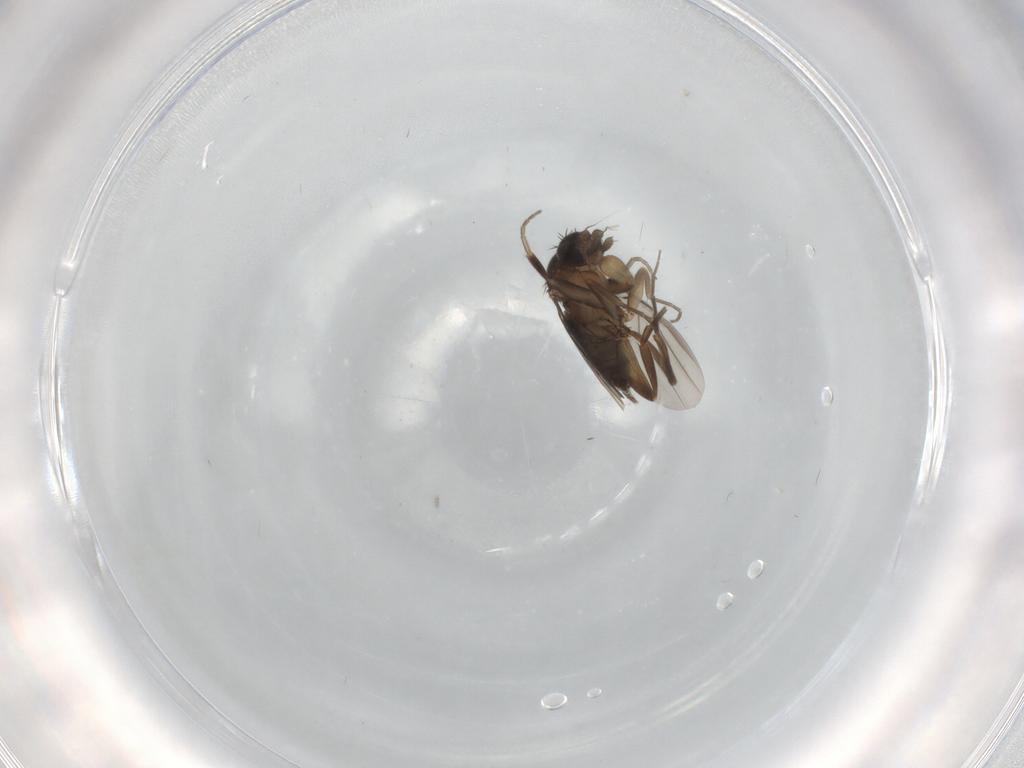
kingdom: Animalia
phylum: Arthropoda
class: Insecta
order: Diptera
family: Phoridae
